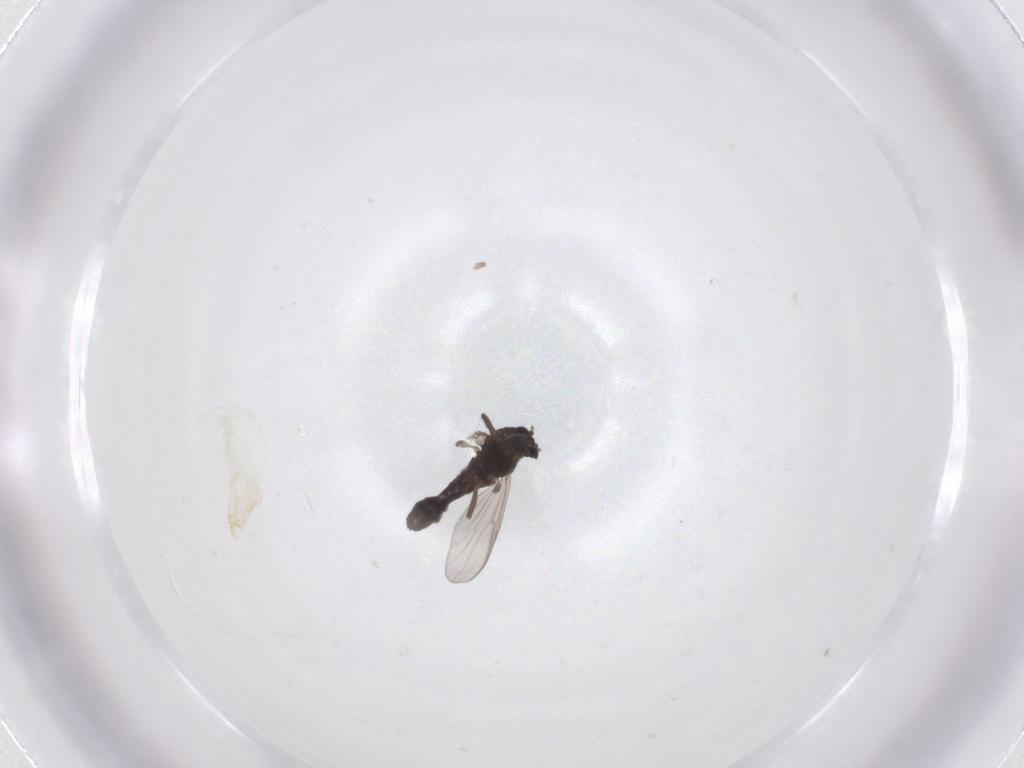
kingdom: Animalia
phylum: Arthropoda
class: Insecta
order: Diptera
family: Chironomidae
